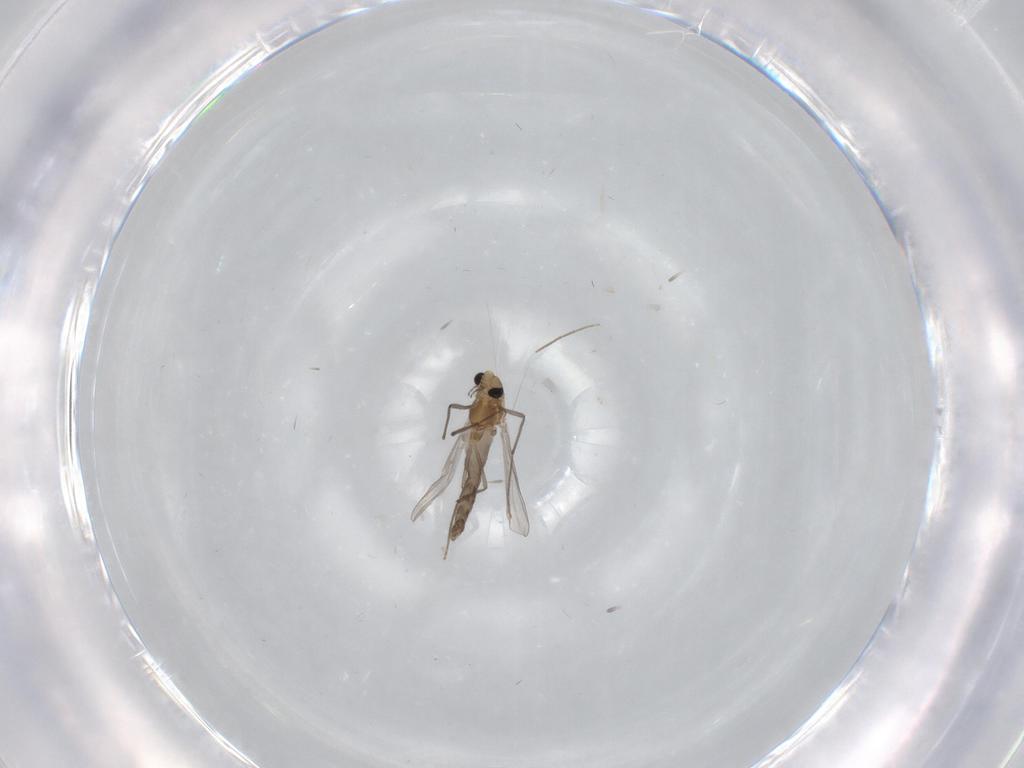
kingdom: Animalia
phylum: Arthropoda
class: Insecta
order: Diptera
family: Chironomidae
